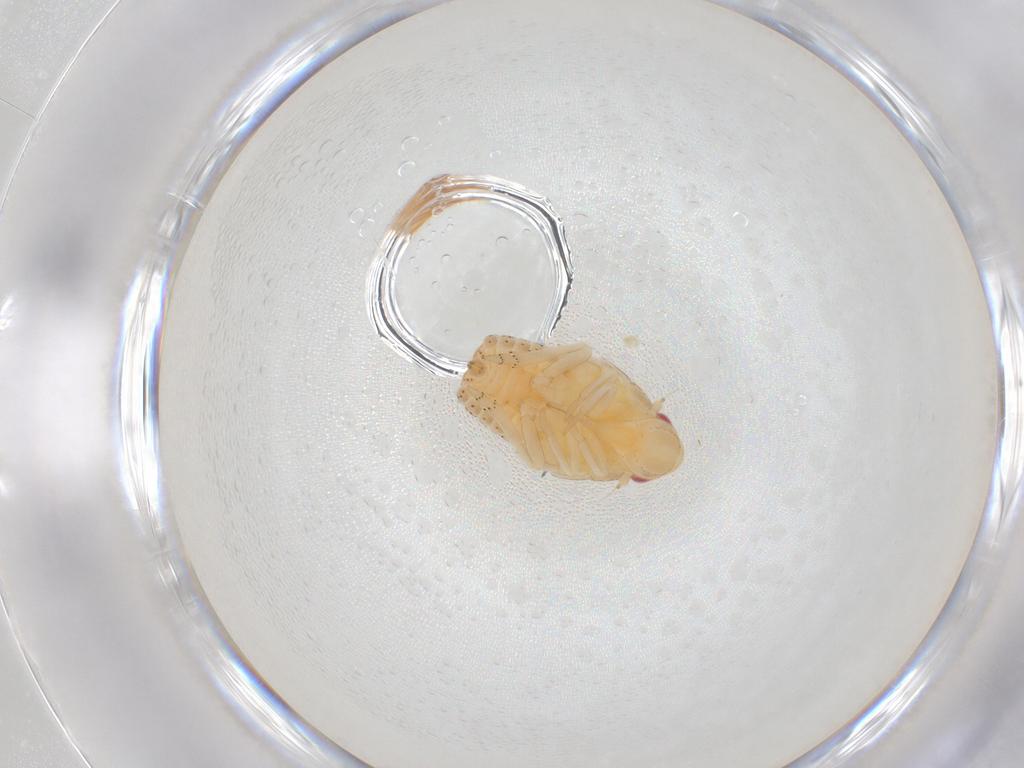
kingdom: Animalia
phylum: Arthropoda
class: Insecta
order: Hemiptera
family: Flatidae
